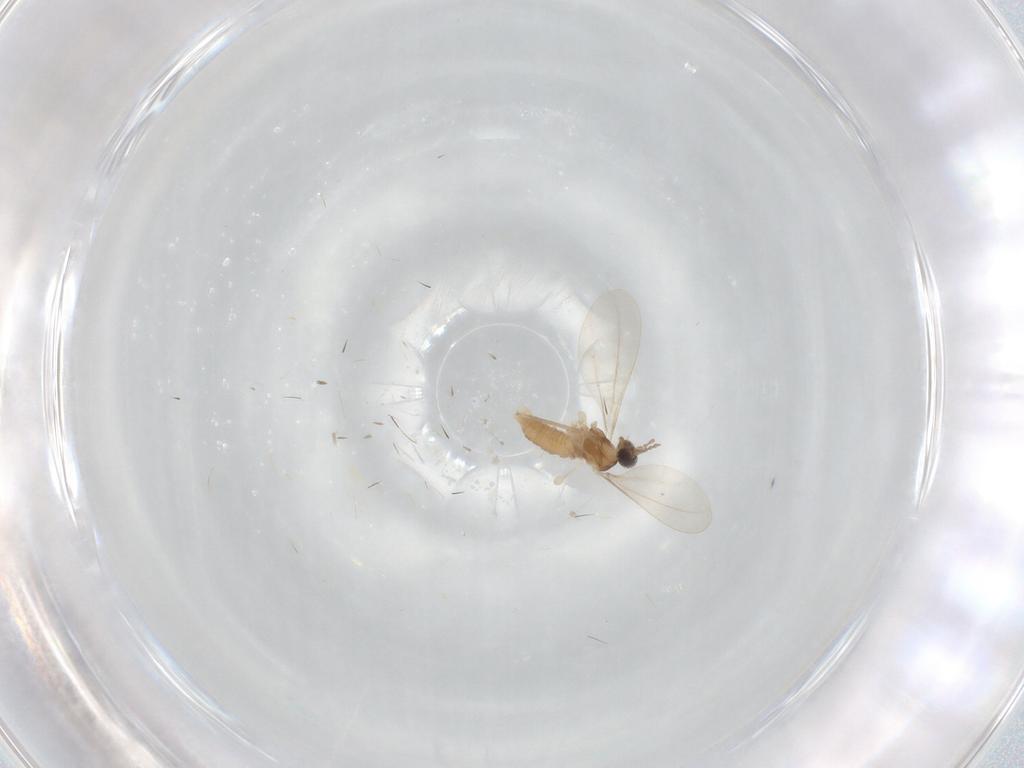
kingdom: Animalia
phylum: Arthropoda
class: Insecta
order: Diptera
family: Cecidomyiidae
